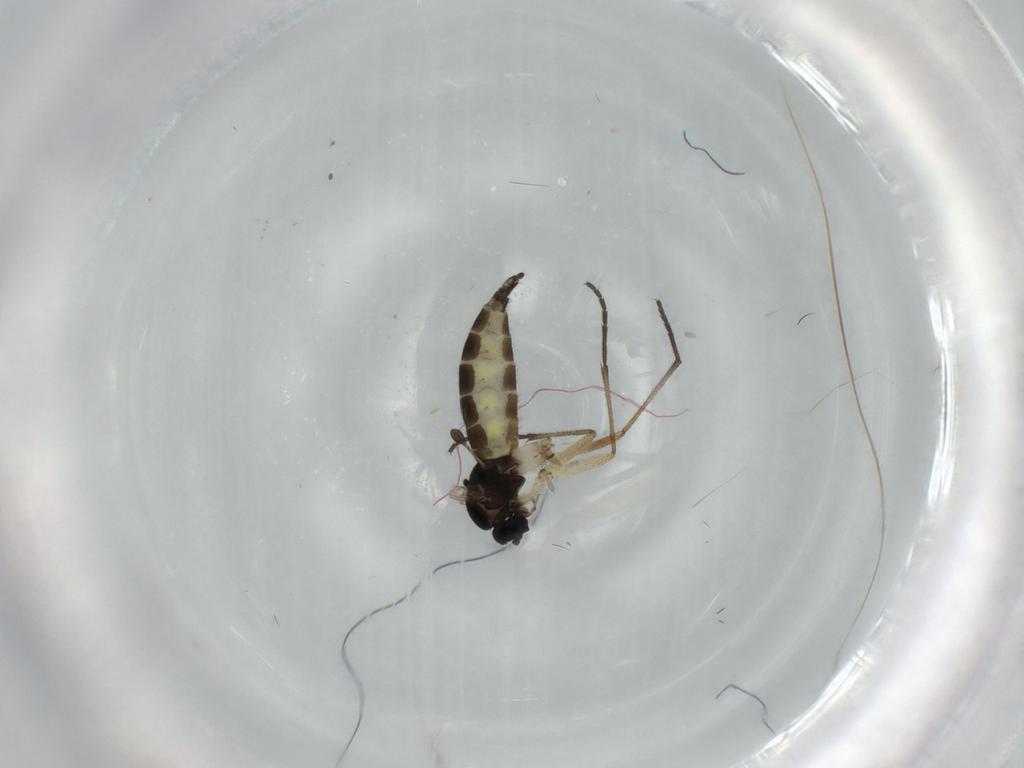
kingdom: Animalia
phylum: Arthropoda
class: Insecta
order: Diptera
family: Sciaridae
